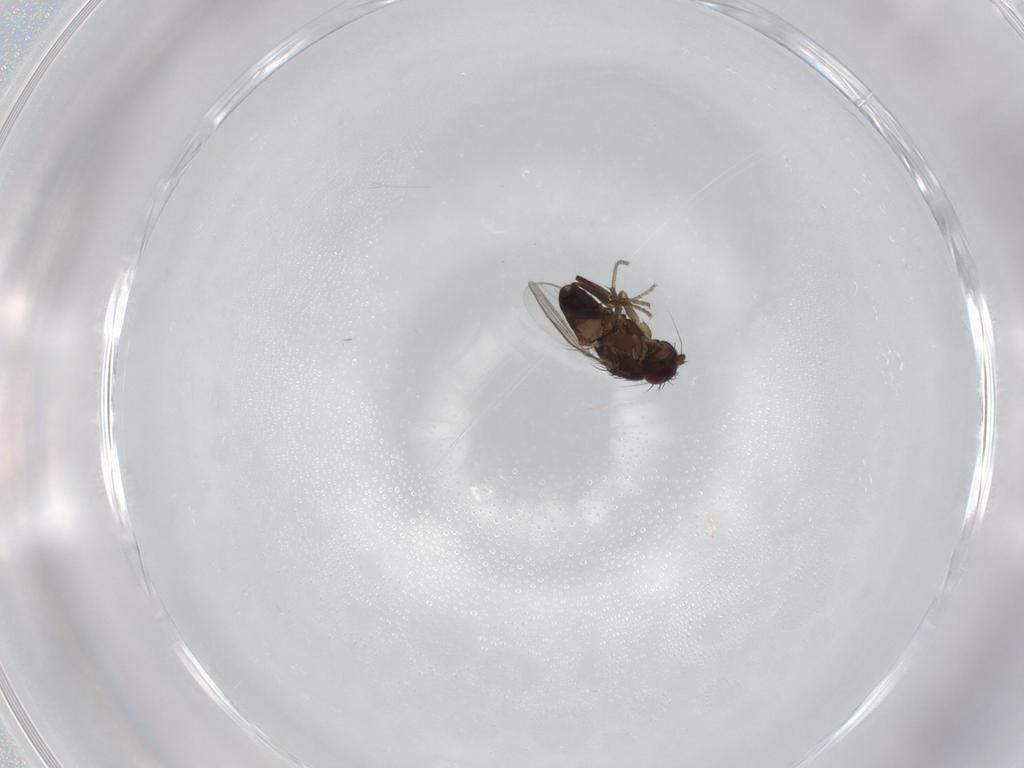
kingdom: Animalia
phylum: Arthropoda
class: Insecta
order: Diptera
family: Sphaeroceridae
